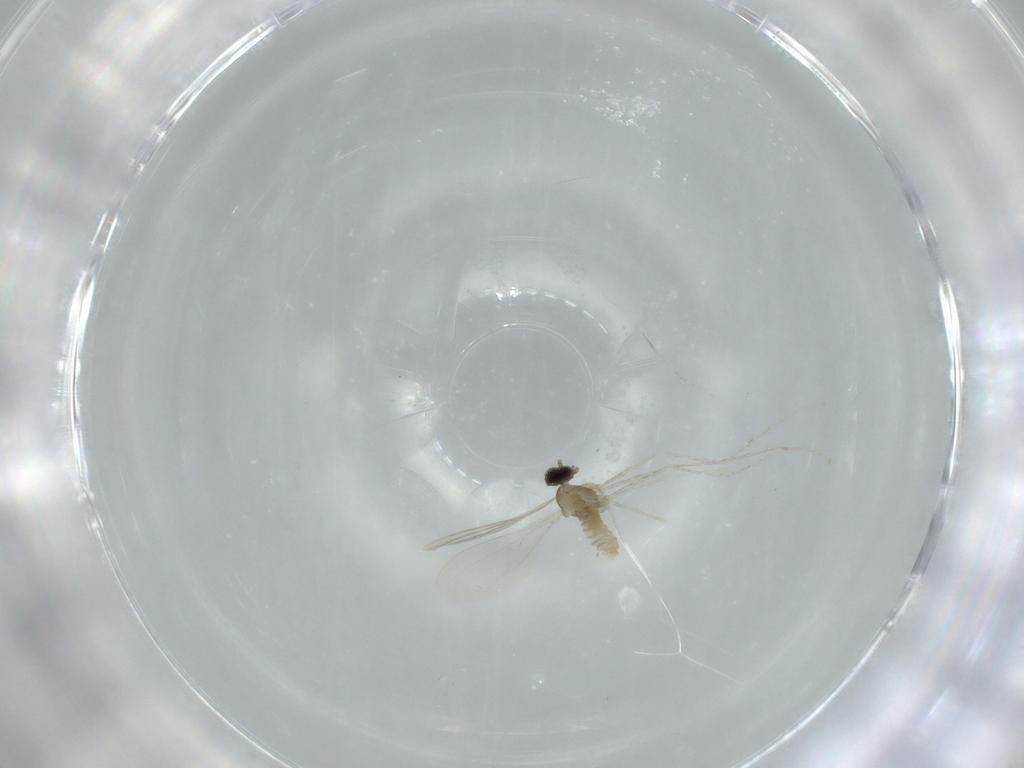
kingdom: Animalia
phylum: Arthropoda
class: Insecta
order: Diptera
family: Cecidomyiidae
